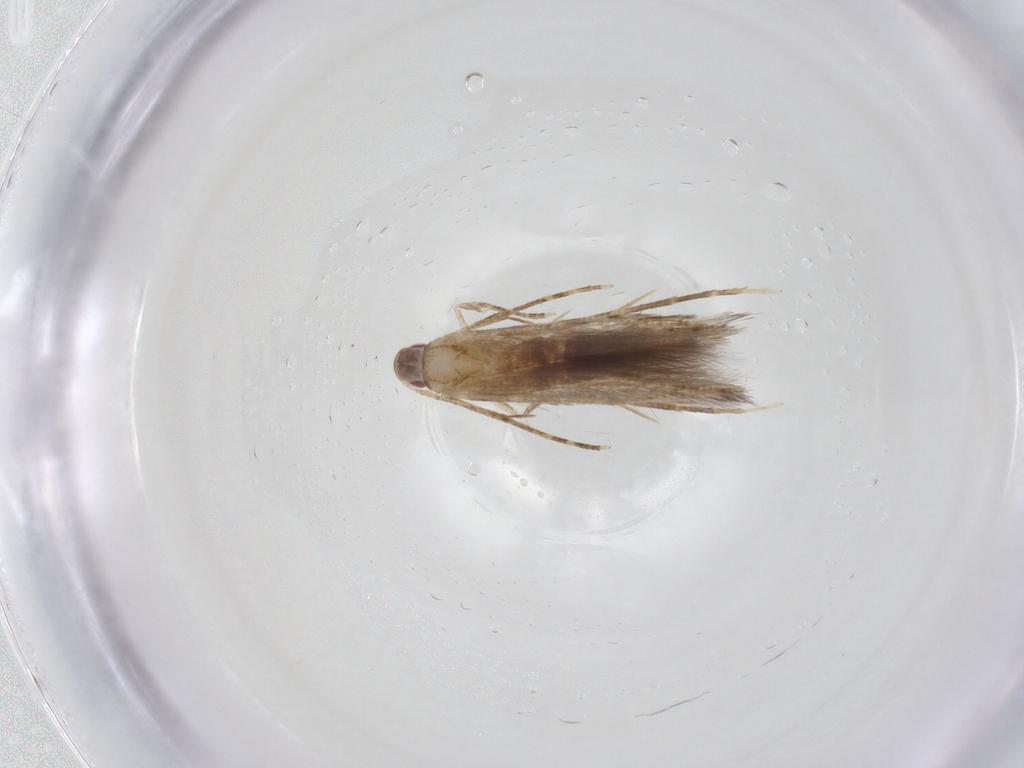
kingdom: Animalia
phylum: Arthropoda
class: Insecta
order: Lepidoptera
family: Cosmopterigidae
